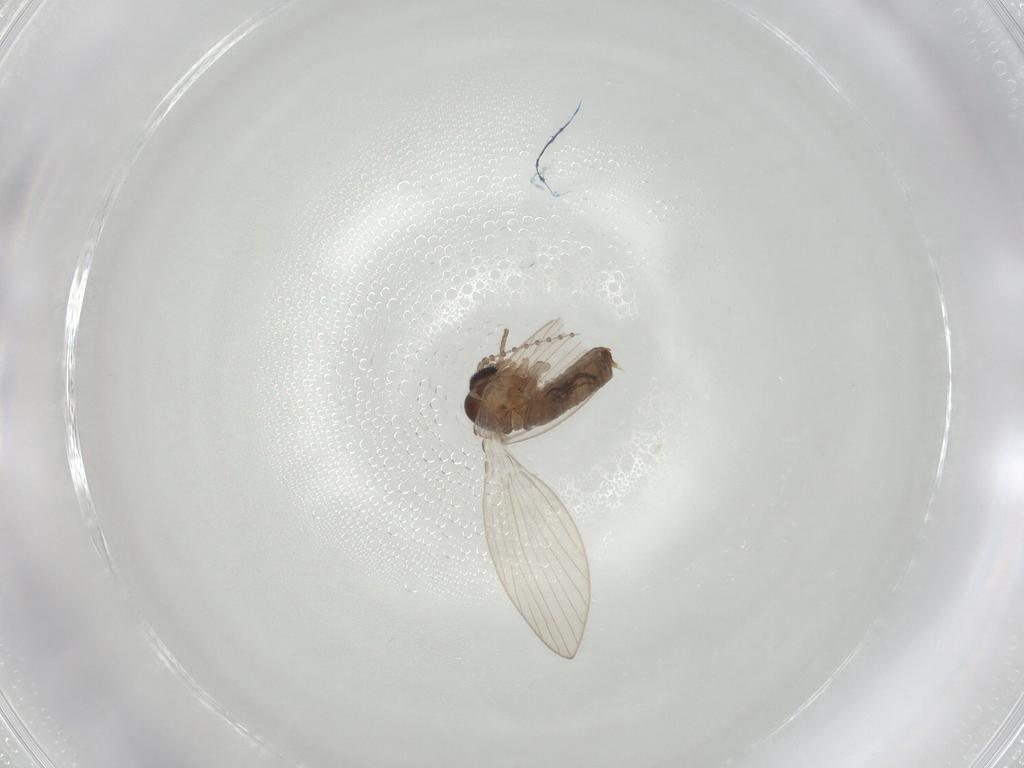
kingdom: Animalia
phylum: Arthropoda
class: Insecta
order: Diptera
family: Psychodidae
